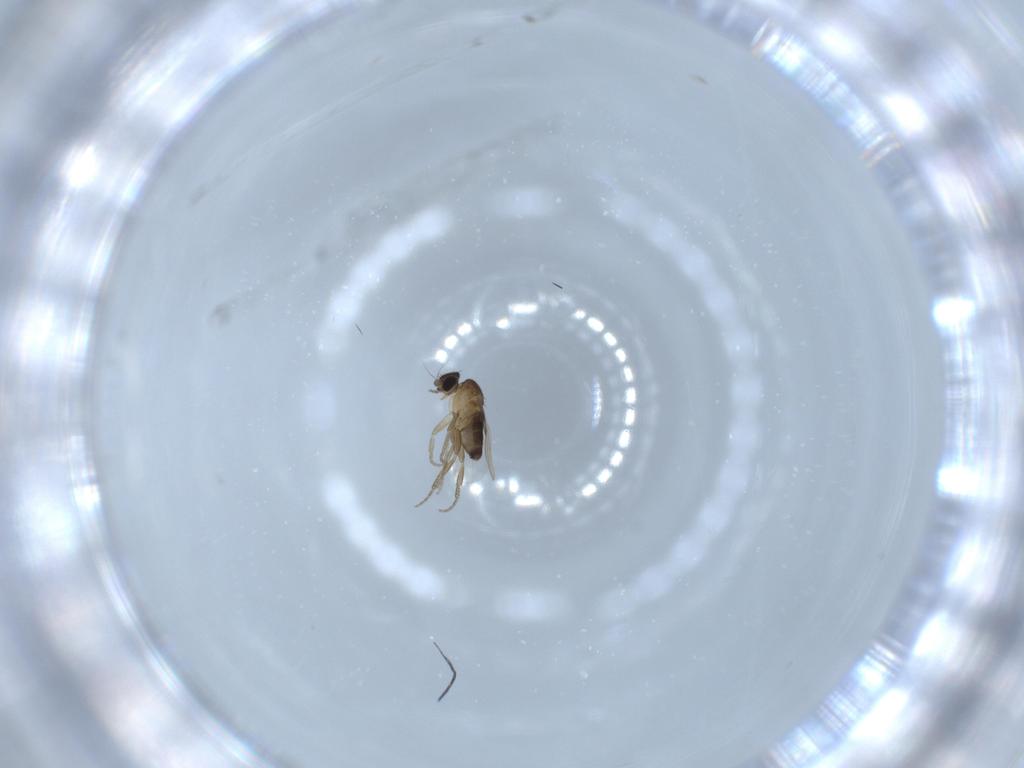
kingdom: Animalia
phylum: Arthropoda
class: Insecta
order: Diptera
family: Phoridae
